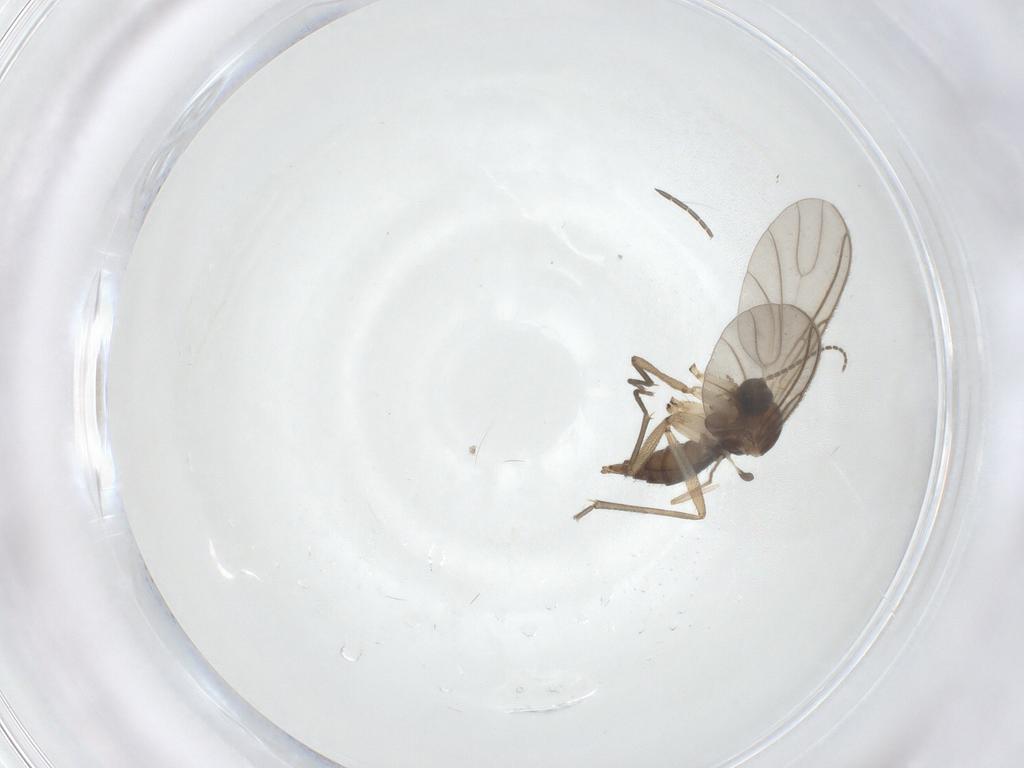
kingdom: Animalia
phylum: Arthropoda
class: Insecta
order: Diptera
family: Sciaridae
